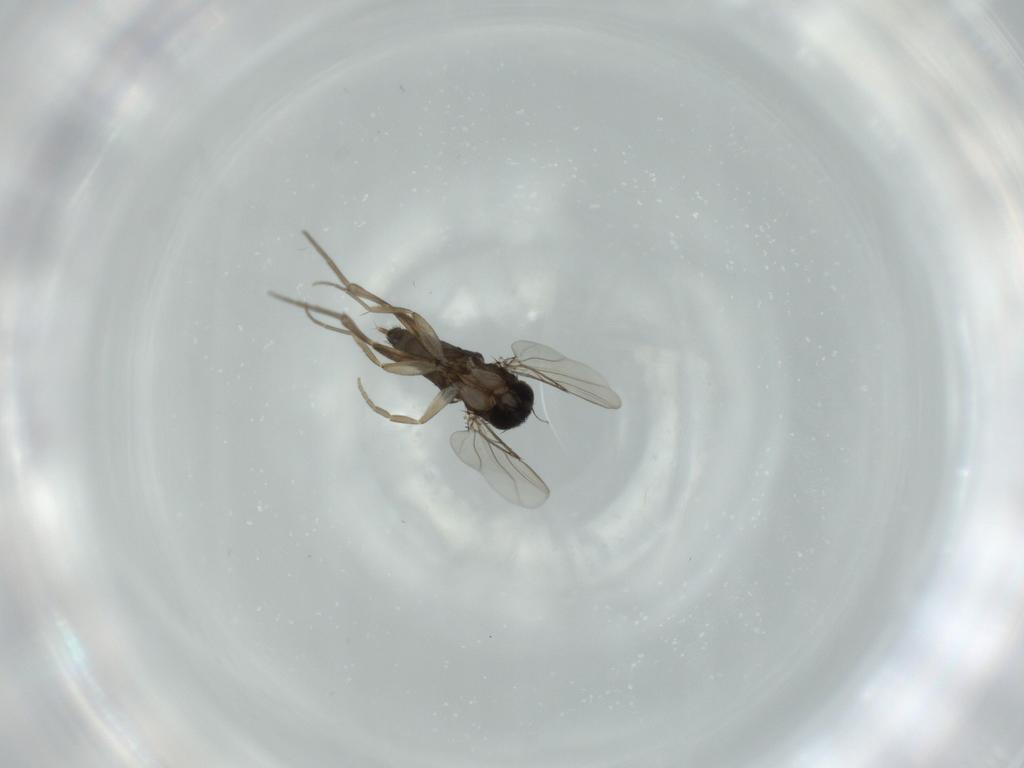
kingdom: Animalia
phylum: Arthropoda
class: Insecta
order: Diptera
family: Phoridae
